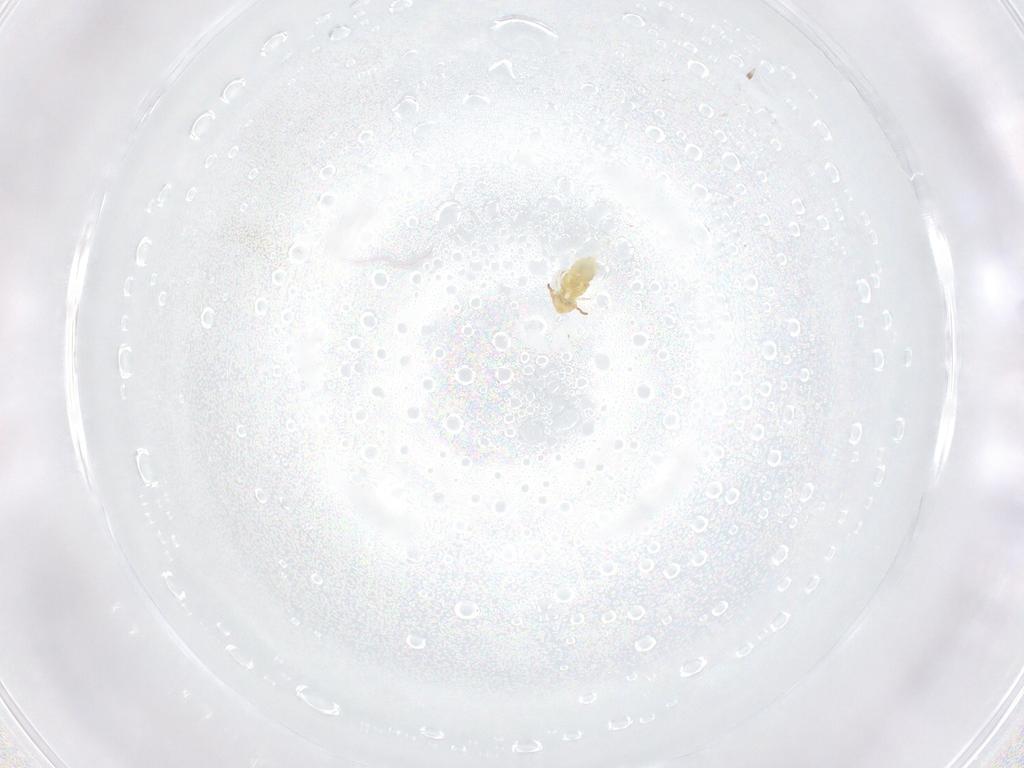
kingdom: Animalia
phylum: Arthropoda
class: Collembola
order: Symphypleona
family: Bourletiellidae
